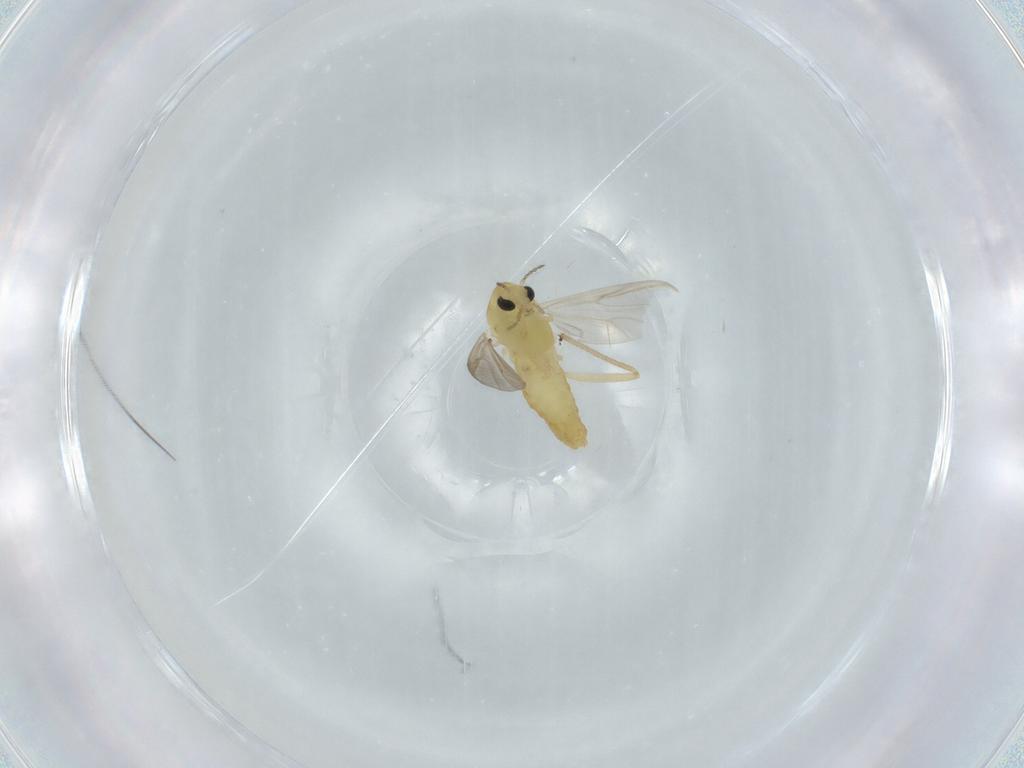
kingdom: Animalia
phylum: Arthropoda
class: Insecta
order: Diptera
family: Chironomidae
